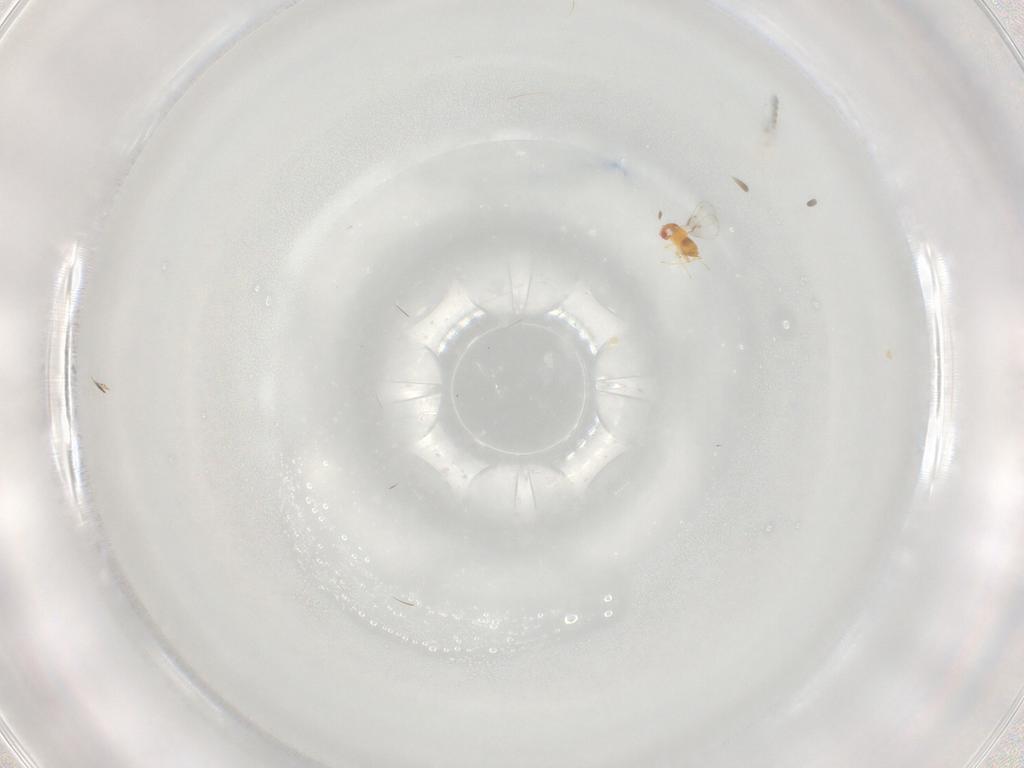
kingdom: Animalia
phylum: Arthropoda
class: Insecta
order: Hymenoptera
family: Trichogrammatidae
